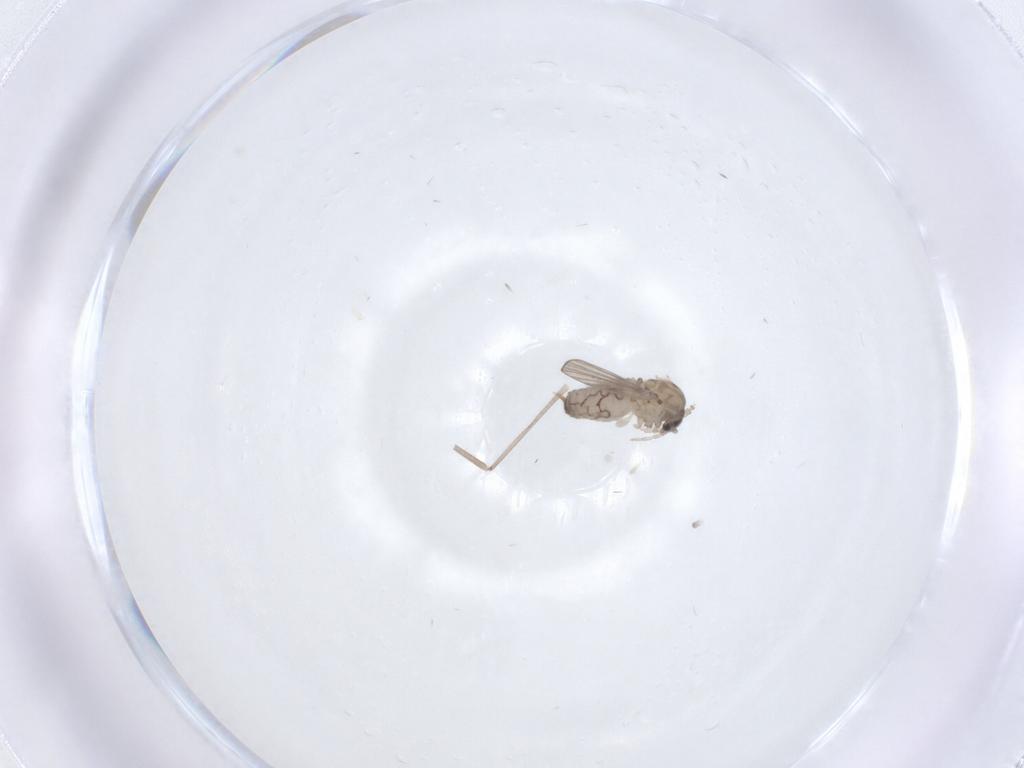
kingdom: Animalia
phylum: Arthropoda
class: Insecta
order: Diptera
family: Psychodidae
